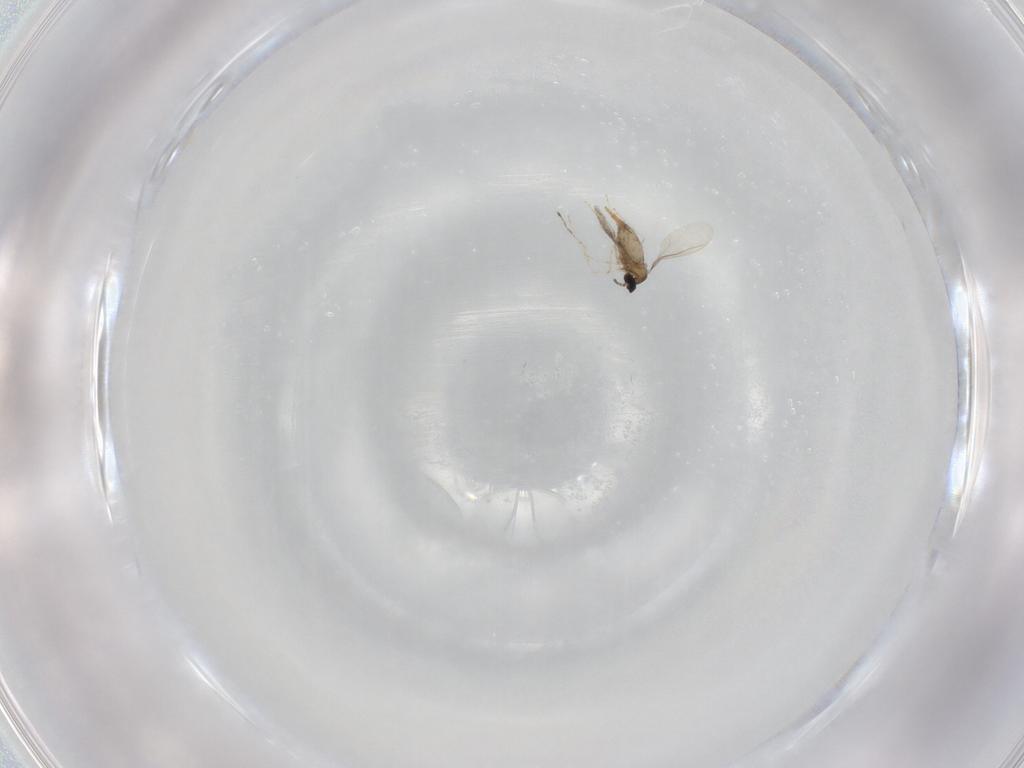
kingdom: Animalia
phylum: Arthropoda
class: Insecta
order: Diptera
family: Cecidomyiidae
